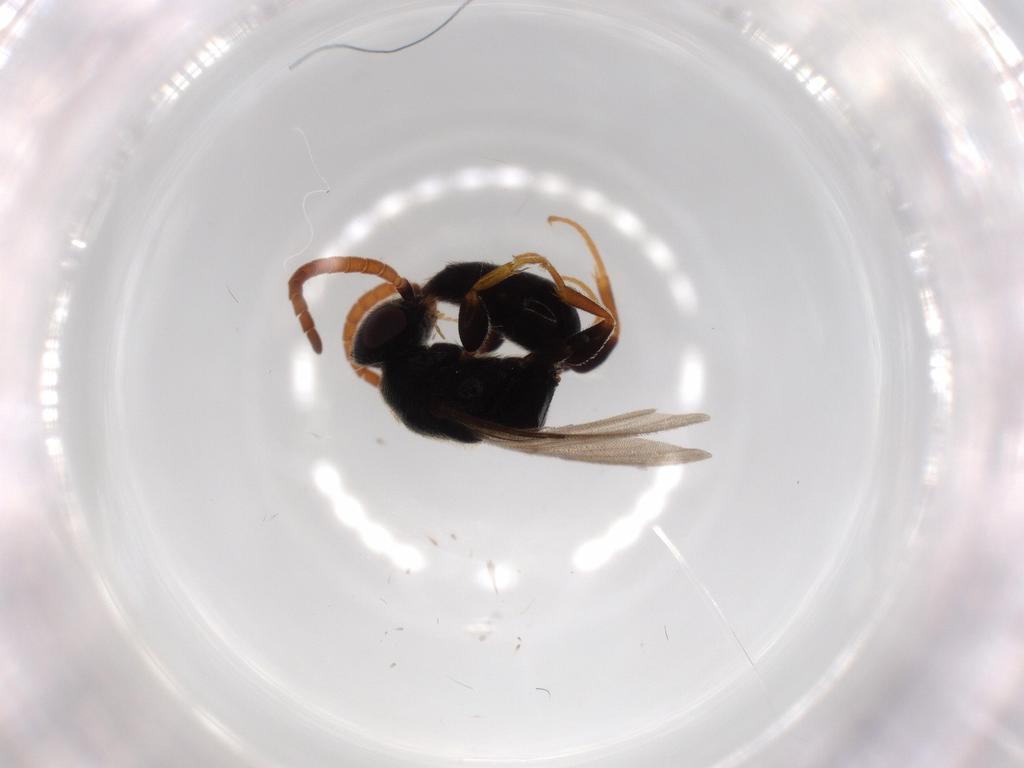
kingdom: Animalia
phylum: Arthropoda
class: Insecta
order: Hymenoptera
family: Bethylidae
